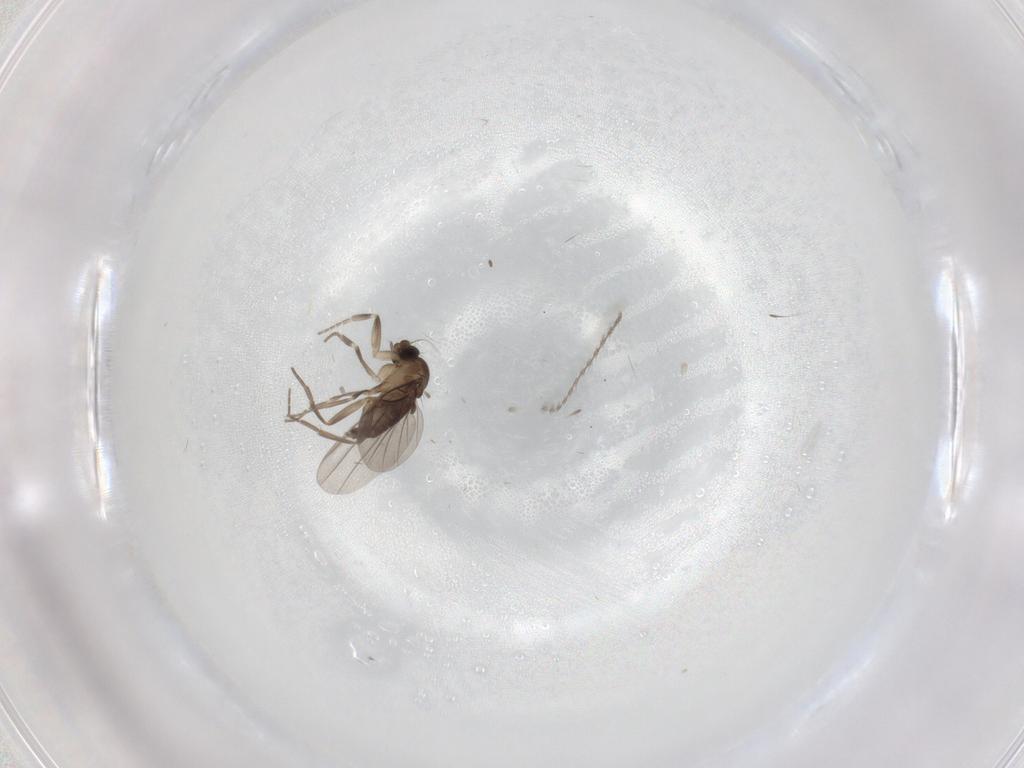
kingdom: Animalia
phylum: Arthropoda
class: Insecta
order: Diptera
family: Cecidomyiidae
